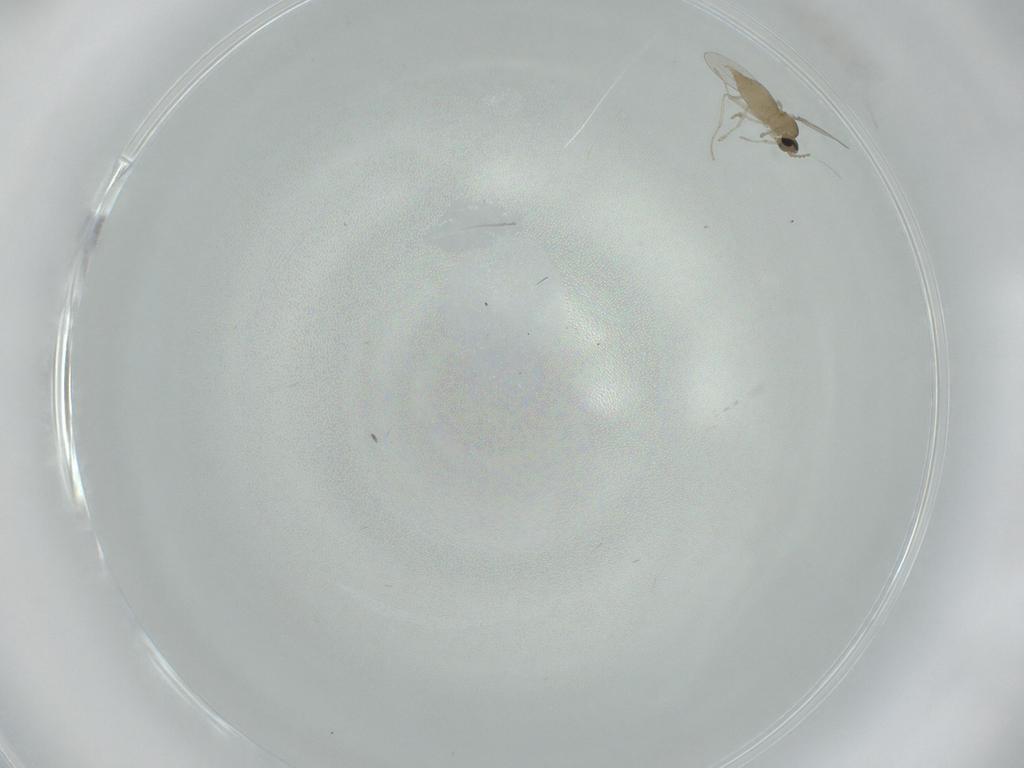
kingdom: Animalia
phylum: Arthropoda
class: Insecta
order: Diptera
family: Cecidomyiidae
